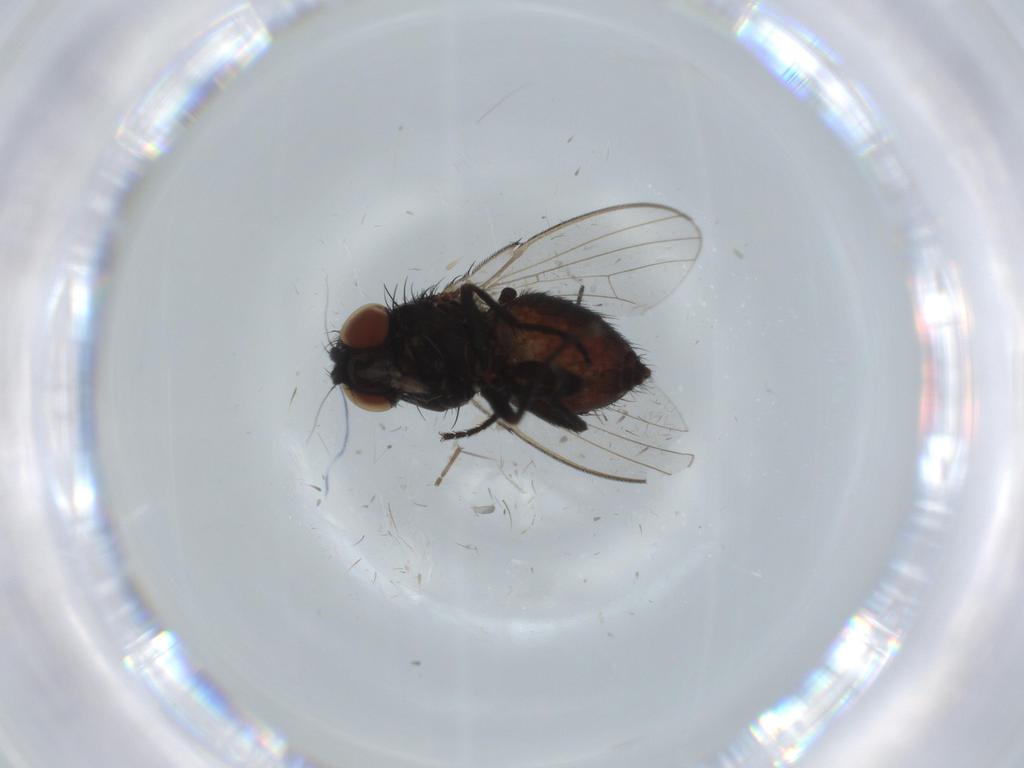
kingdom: Animalia
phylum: Arthropoda
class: Insecta
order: Diptera
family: Milichiidae
